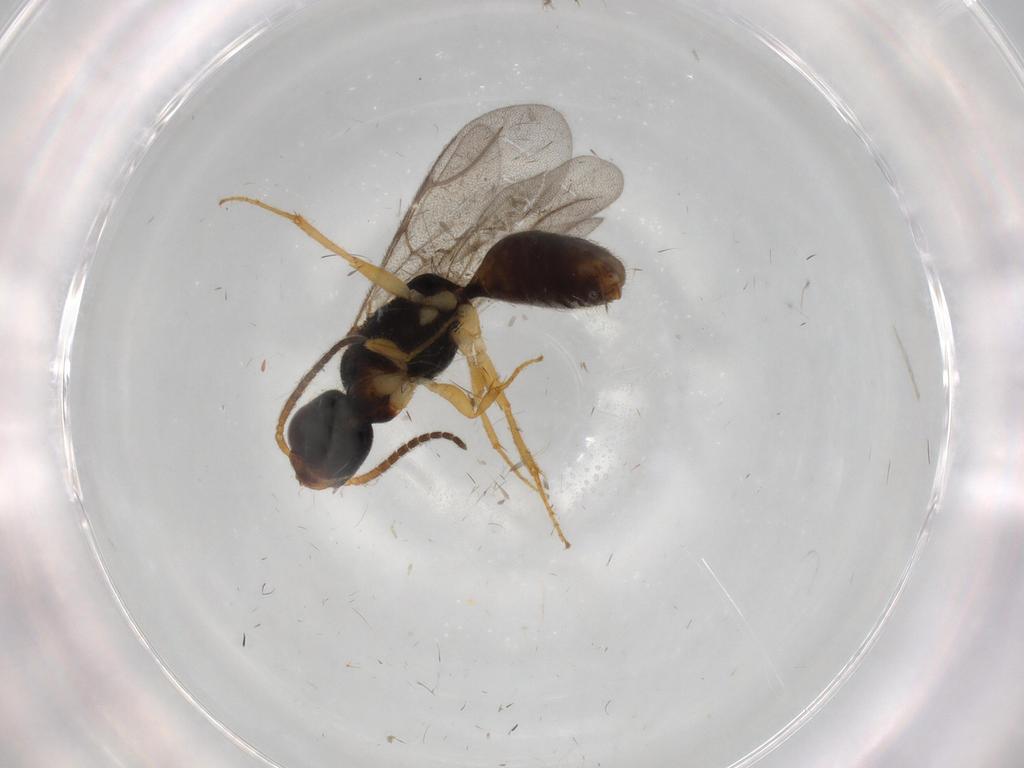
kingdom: Animalia
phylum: Arthropoda
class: Insecta
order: Hymenoptera
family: Bethylidae
